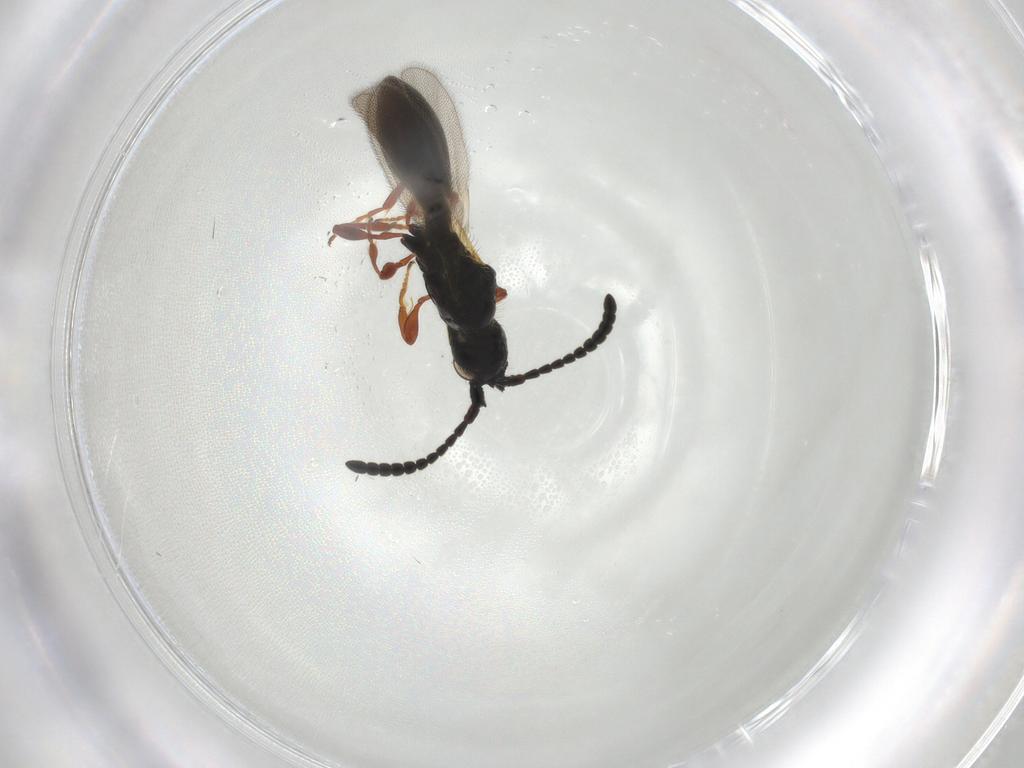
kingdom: Animalia
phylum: Arthropoda
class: Insecta
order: Hymenoptera
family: Diapriidae
